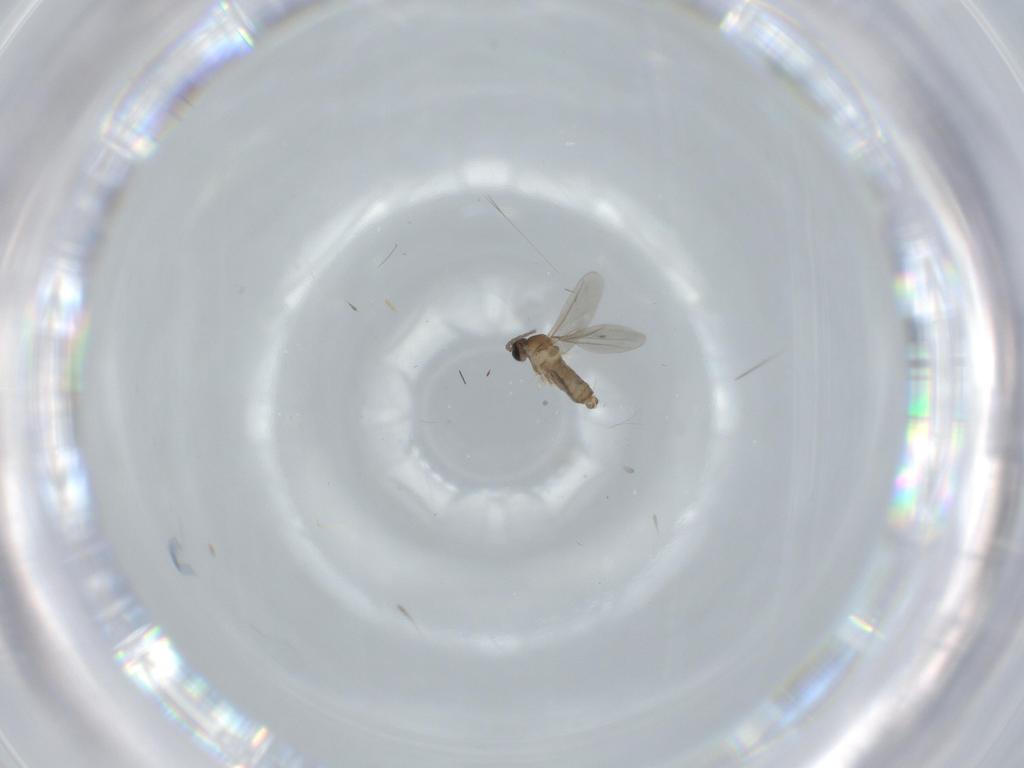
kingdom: Animalia
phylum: Arthropoda
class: Insecta
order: Diptera
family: Cecidomyiidae
